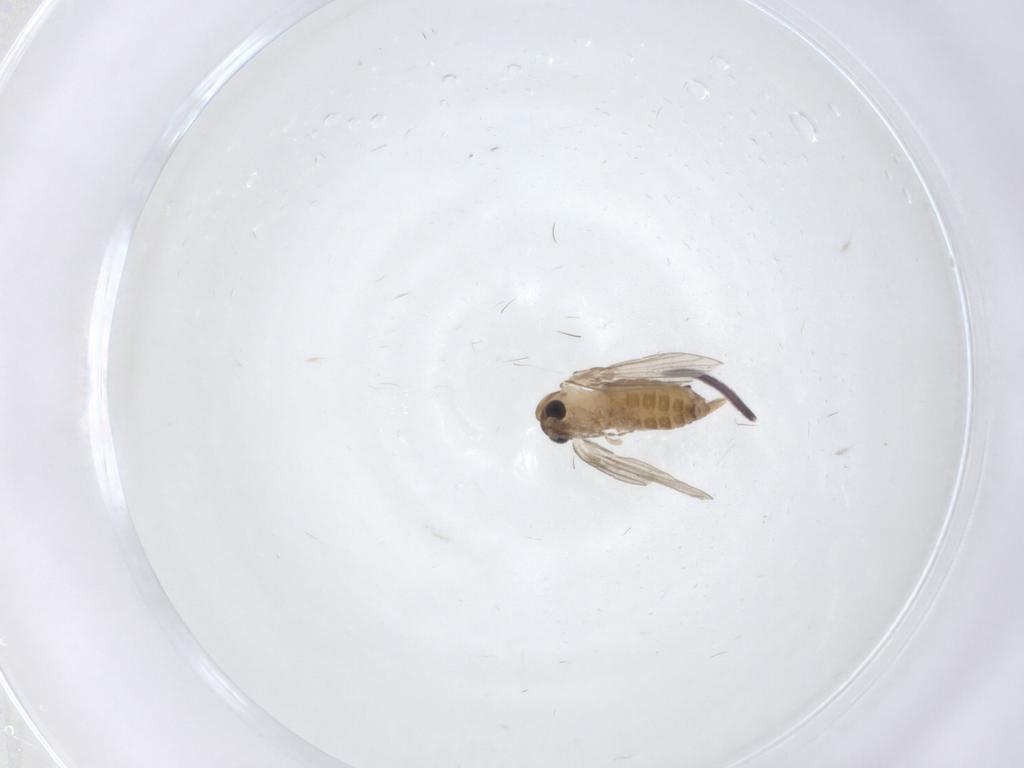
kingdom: Animalia
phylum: Arthropoda
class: Insecta
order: Diptera
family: Psychodidae
